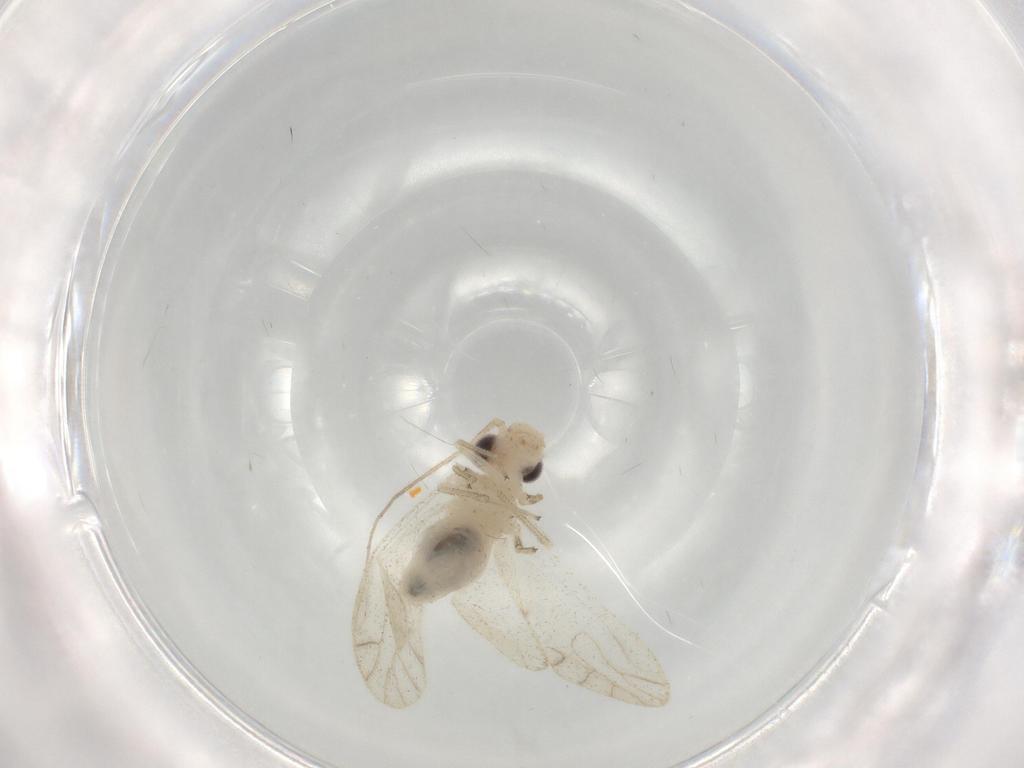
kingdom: Animalia
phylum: Arthropoda
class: Insecta
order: Psocodea
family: Caeciliusidae
